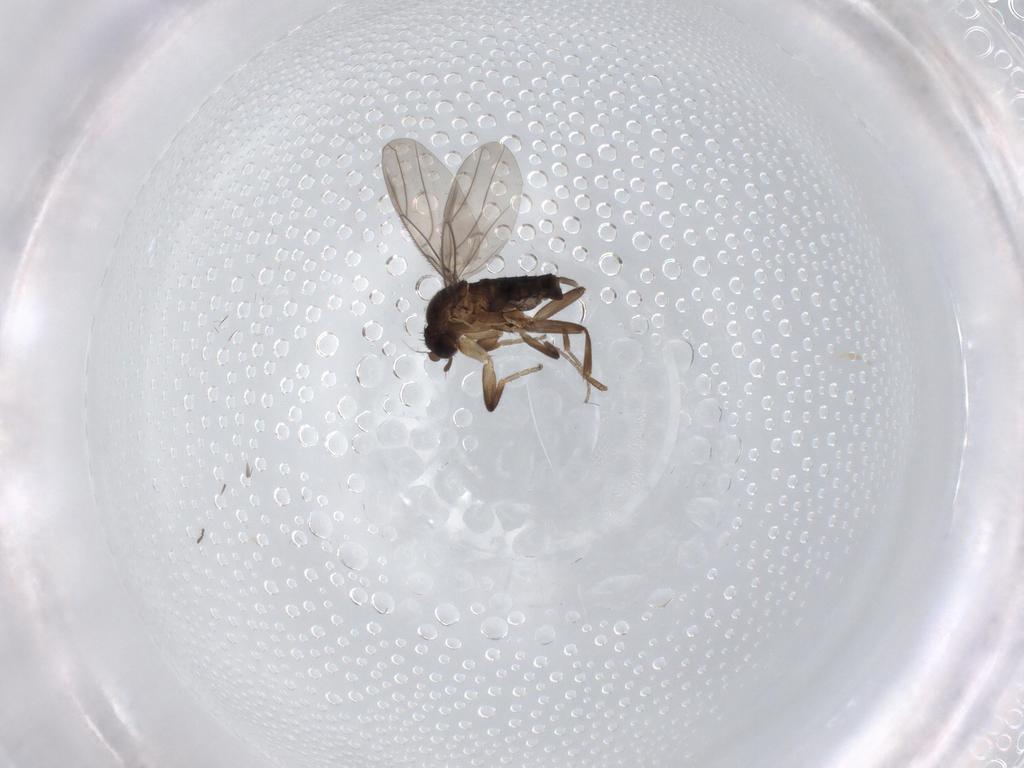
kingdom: Animalia
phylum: Arthropoda
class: Insecta
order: Diptera
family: Phoridae
